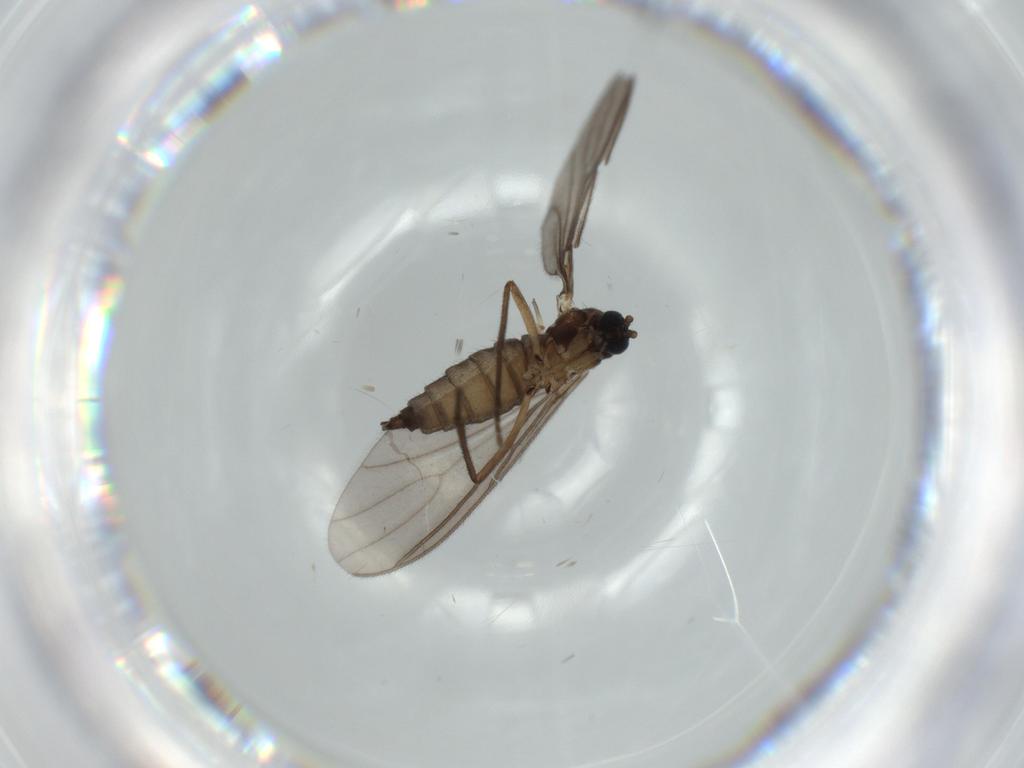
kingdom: Animalia
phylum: Arthropoda
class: Insecta
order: Diptera
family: Sciaridae
